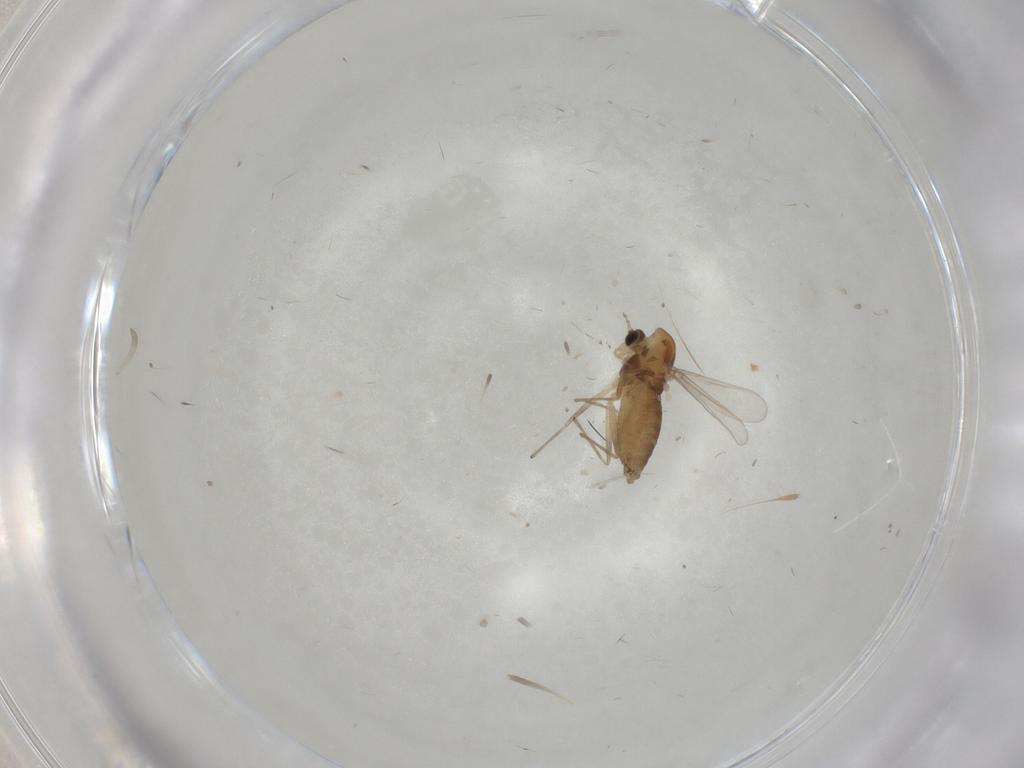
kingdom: Animalia
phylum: Arthropoda
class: Insecta
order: Diptera
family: Chironomidae
